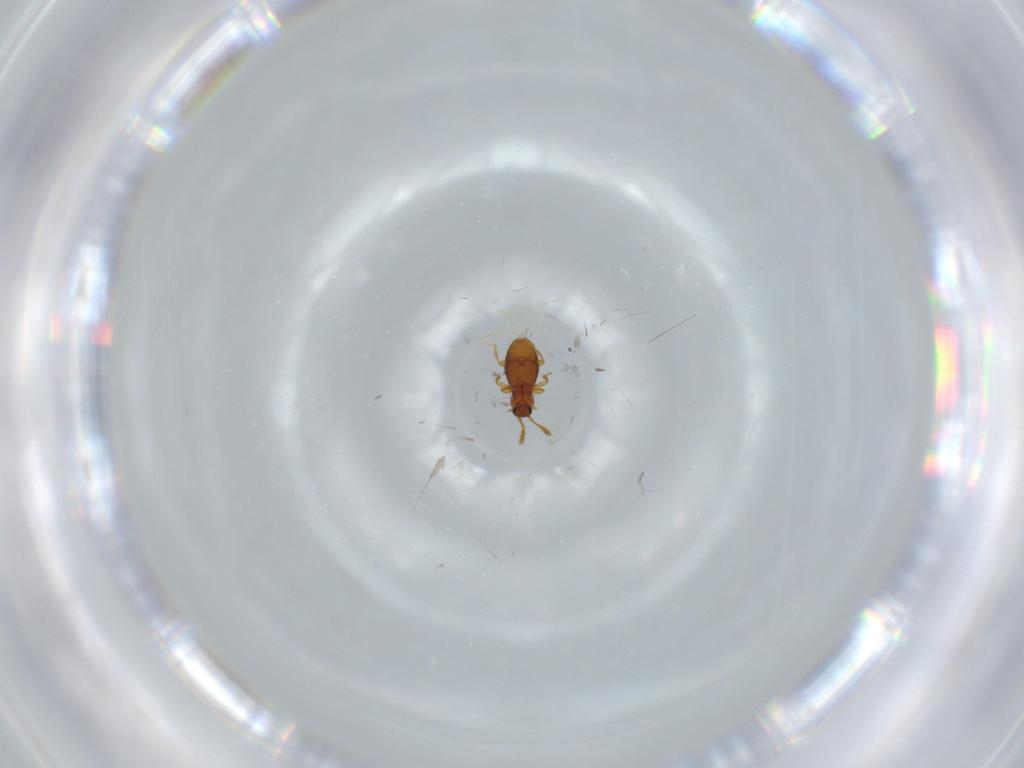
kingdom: Animalia
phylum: Arthropoda
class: Insecta
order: Coleoptera
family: Staphylinidae
